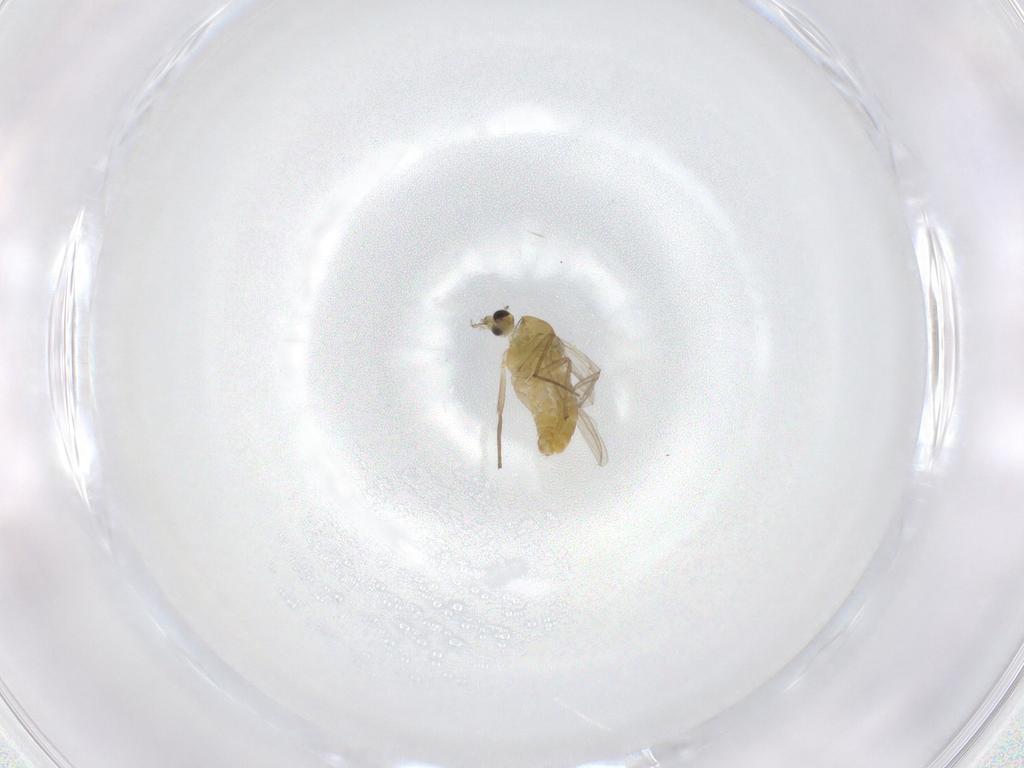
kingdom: Animalia
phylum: Arthropoda
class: Insecta
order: Diptera
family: Chironomidae
